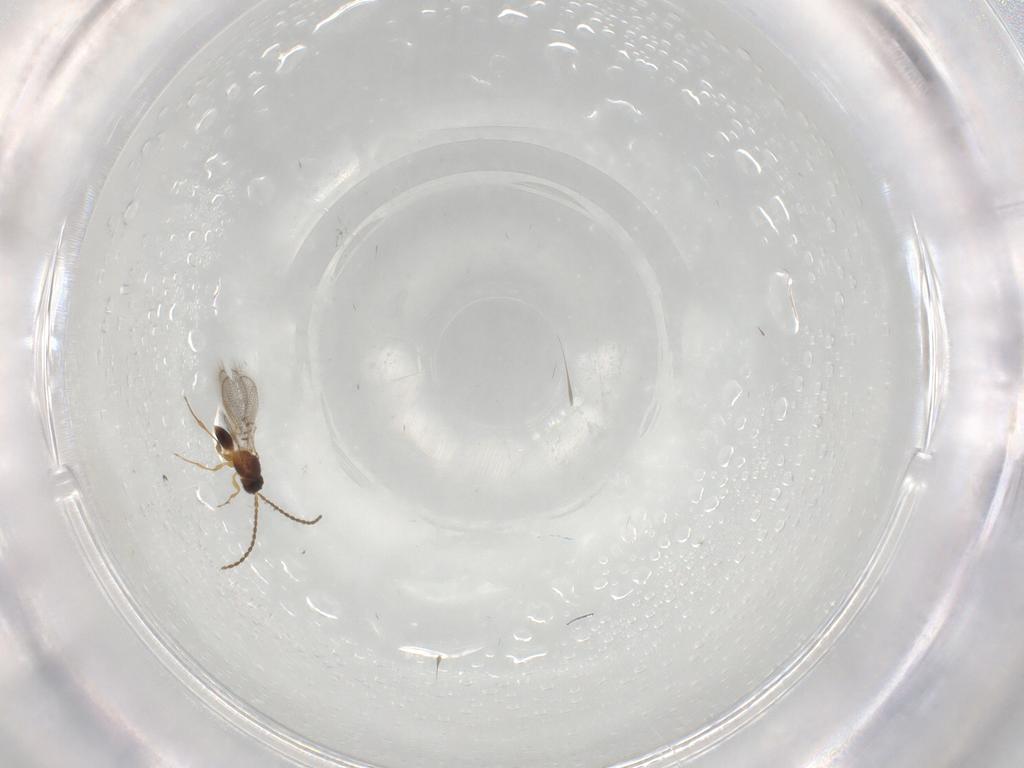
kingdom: Animalia
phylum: Arthropoda
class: Insecta
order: Hymenoptera
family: Figitidae
